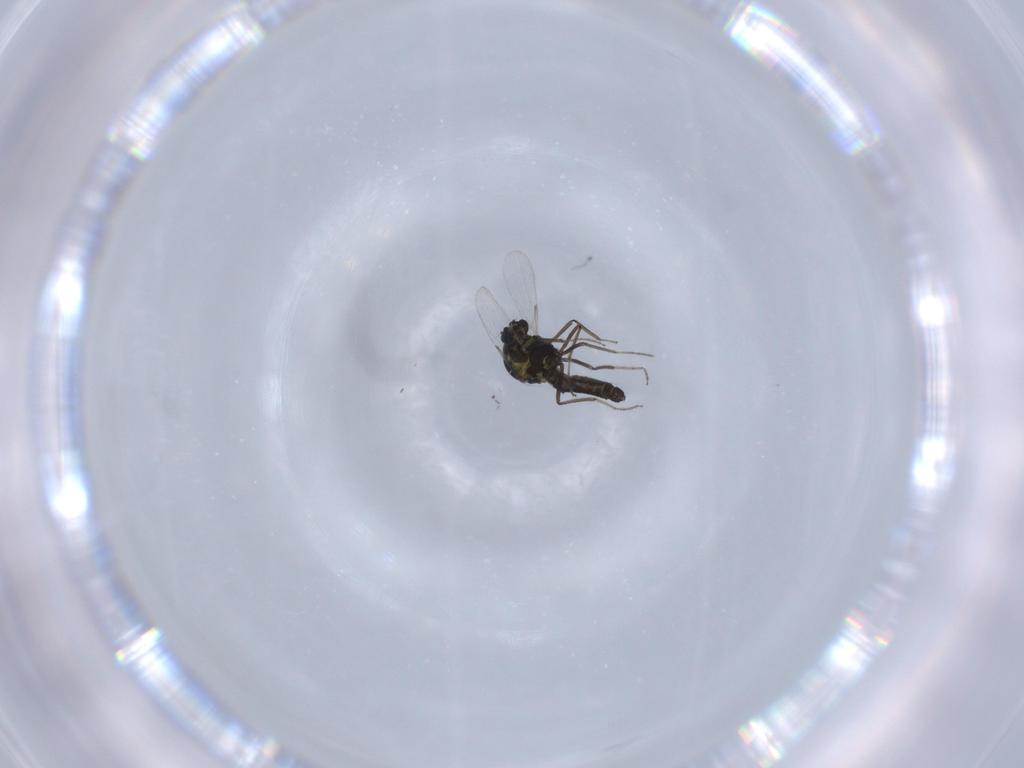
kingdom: Animalia
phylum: Arthropoda
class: Insecta
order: Diptera
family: Ceratopogonidae
